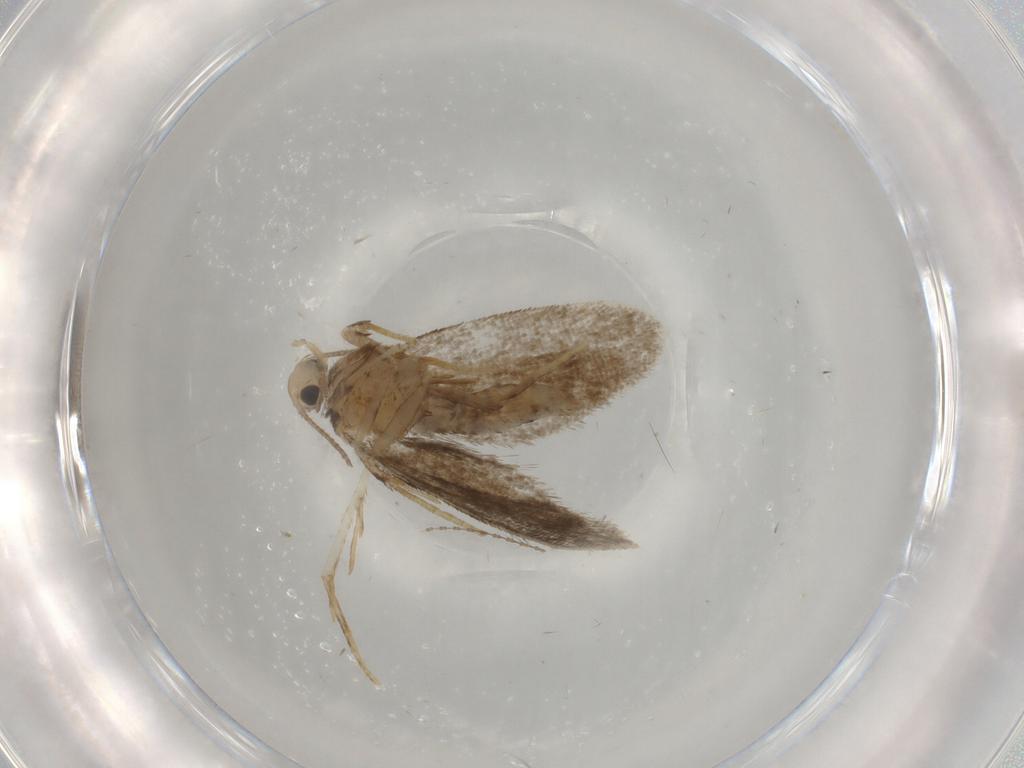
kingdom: Animalia
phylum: Arthropoda
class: Insecta
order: Lepidoptera
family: Psychidae
